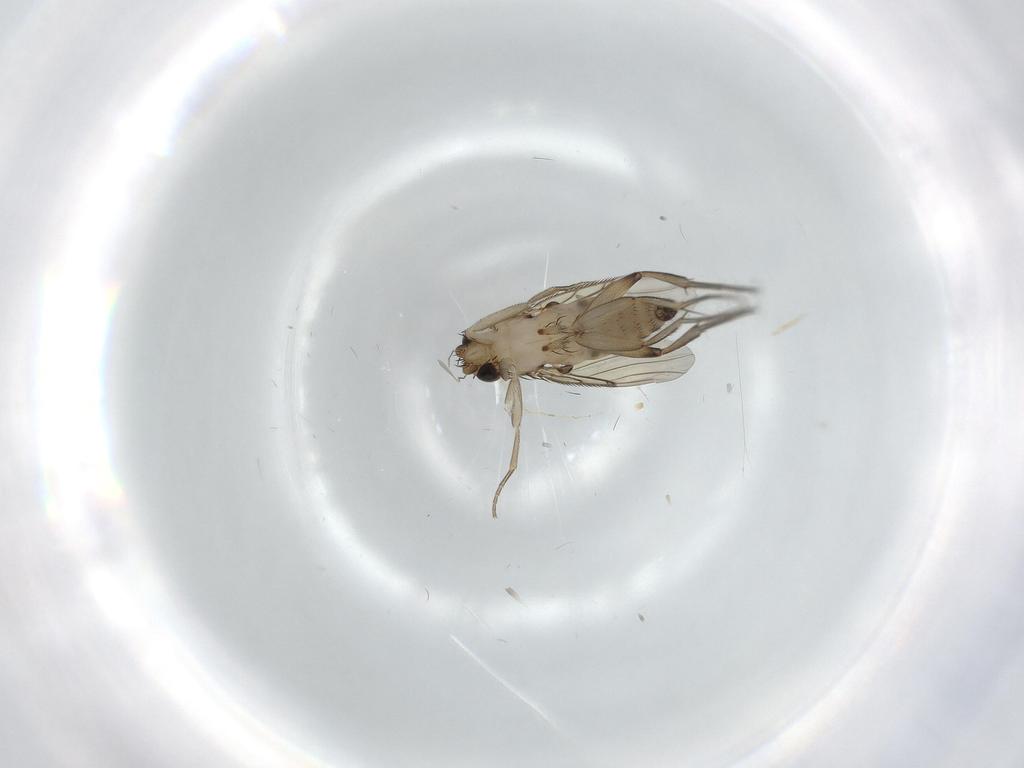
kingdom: Animalia
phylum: Arthropoda
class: Insecta
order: Diptera
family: Phoridae
